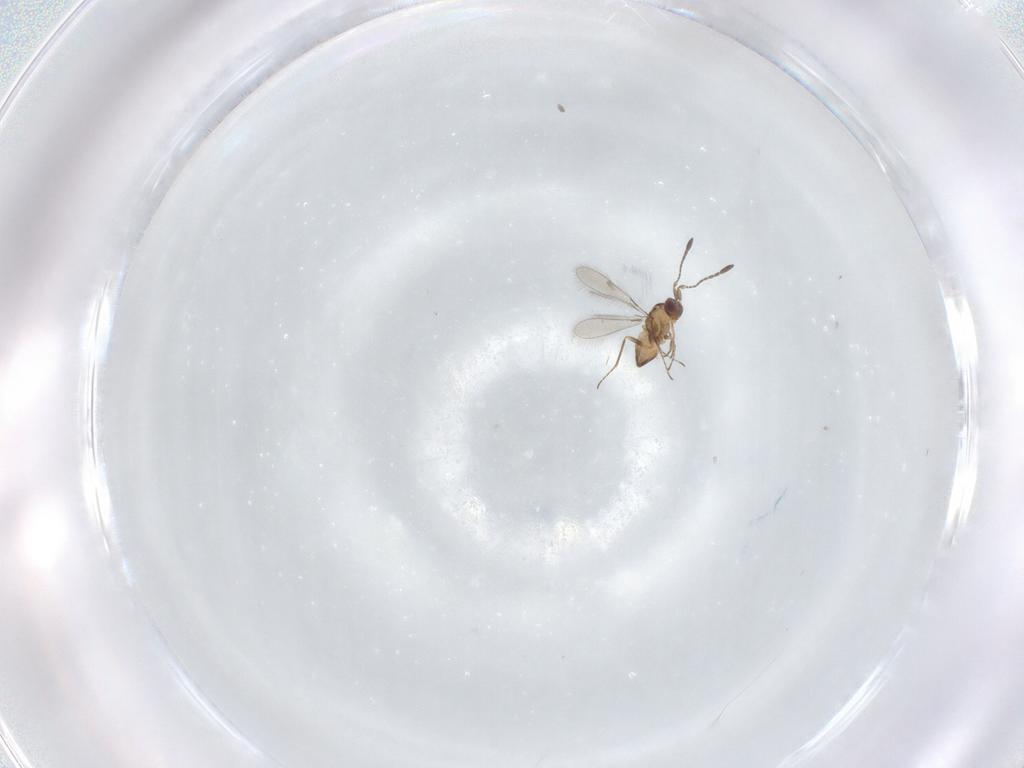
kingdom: Animalia
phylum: Arthropoda
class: Insecta
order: Hymenoptera
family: Mymaridae
